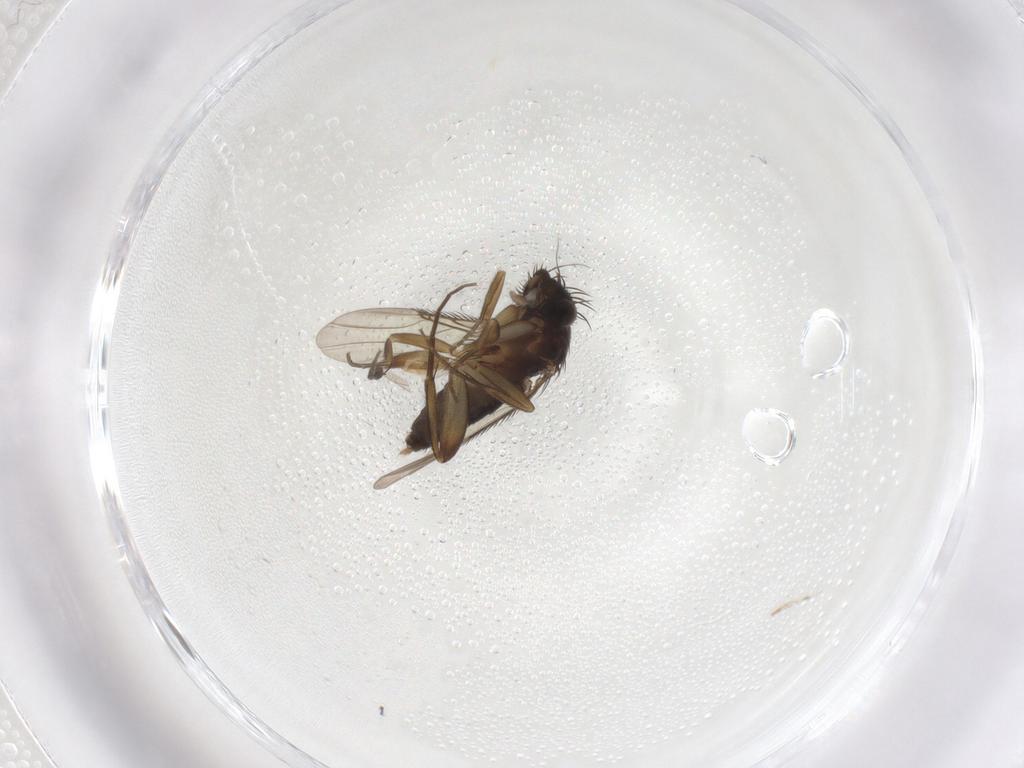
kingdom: Animalia
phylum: Arthropoda
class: Insecta
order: Diptera
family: Phoridae
